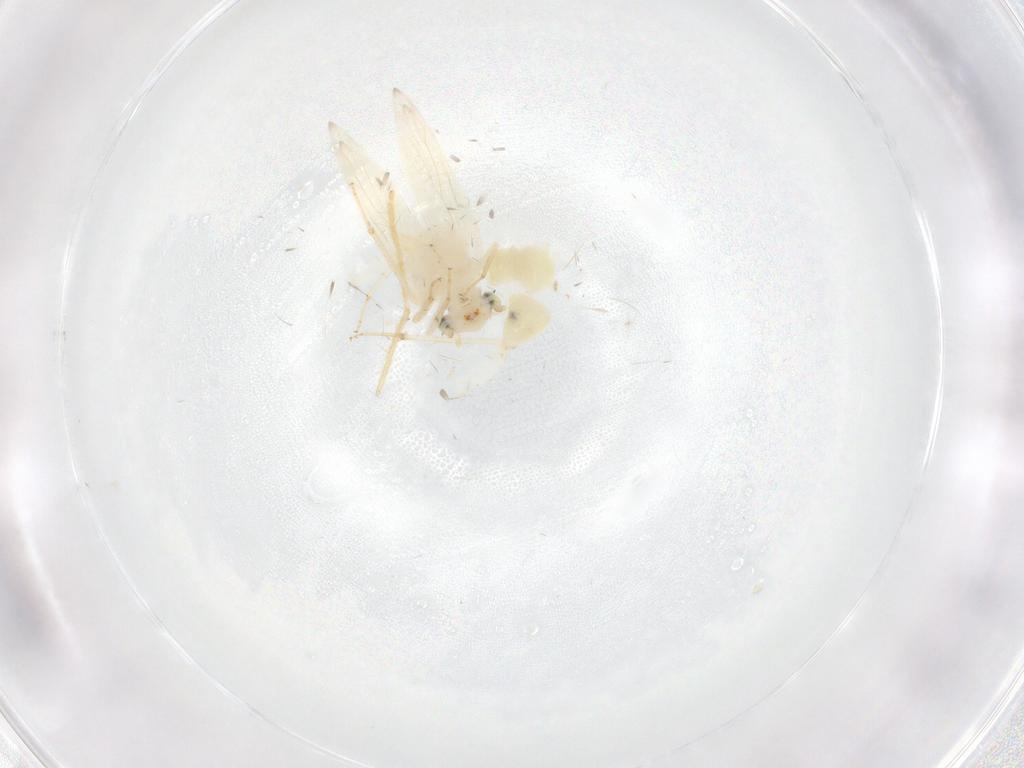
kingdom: Animalia
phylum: Arthropoda
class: Insecta
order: Psocodea
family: Lepidopsocidae
